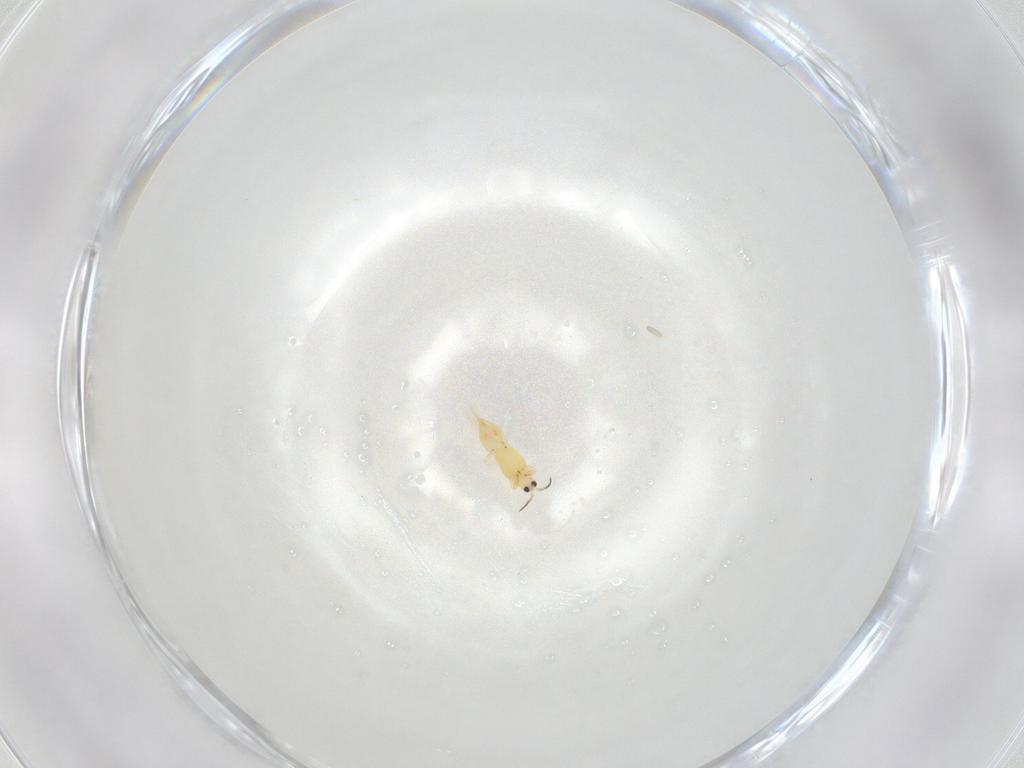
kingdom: Animalia
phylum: Arthropoda
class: Insecta
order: Thysanoptera
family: Melanthripidae
